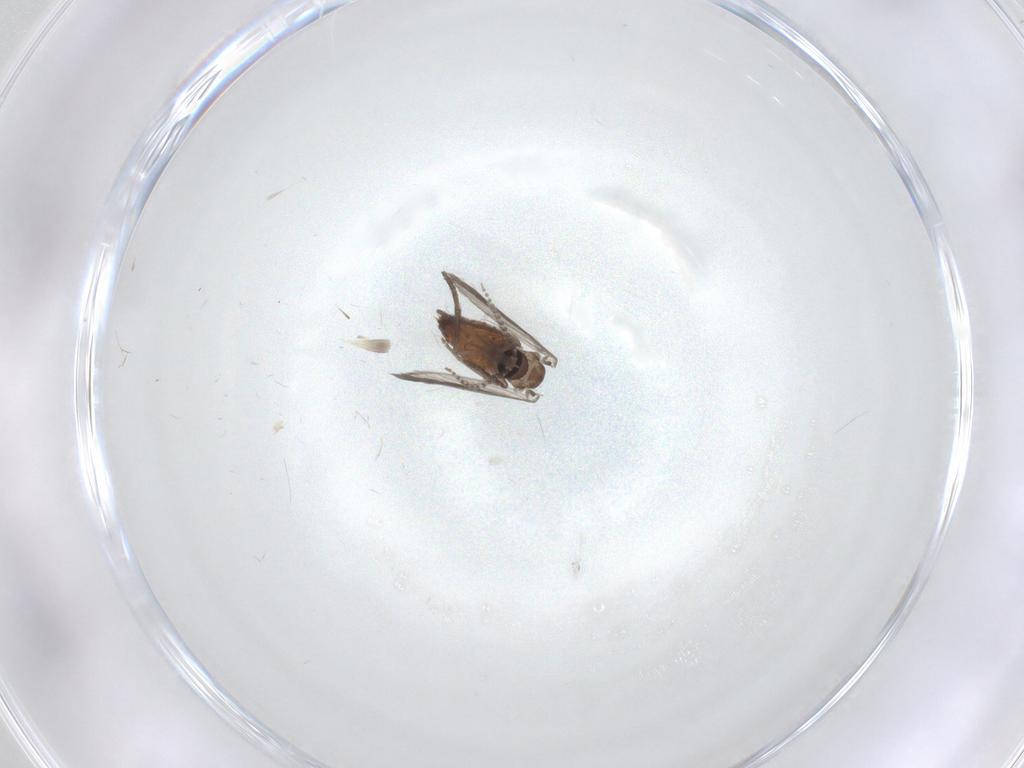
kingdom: Animalia
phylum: Arthropoda
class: Insecta
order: Diptera
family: Psychodidae
